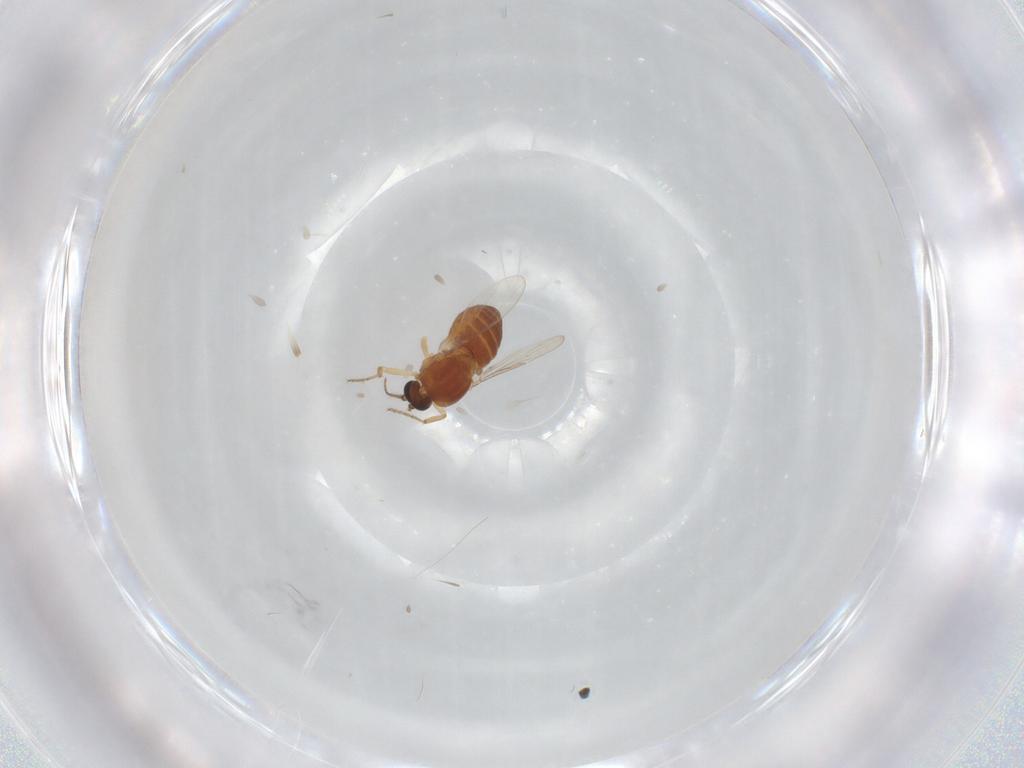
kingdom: Animalia
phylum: Arthropoda
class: Insecta
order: Diptera
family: Ceratopogonidae
